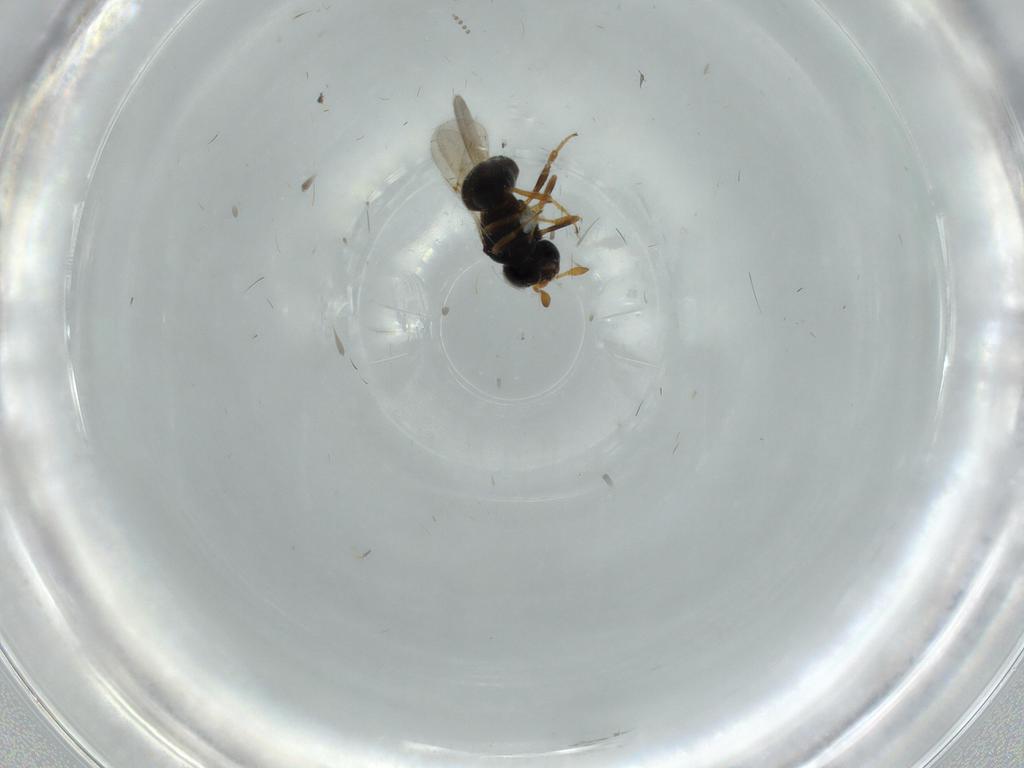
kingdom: Animalia
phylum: Arthropoda
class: Insecta
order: Hymenoptera
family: Scelionidae
